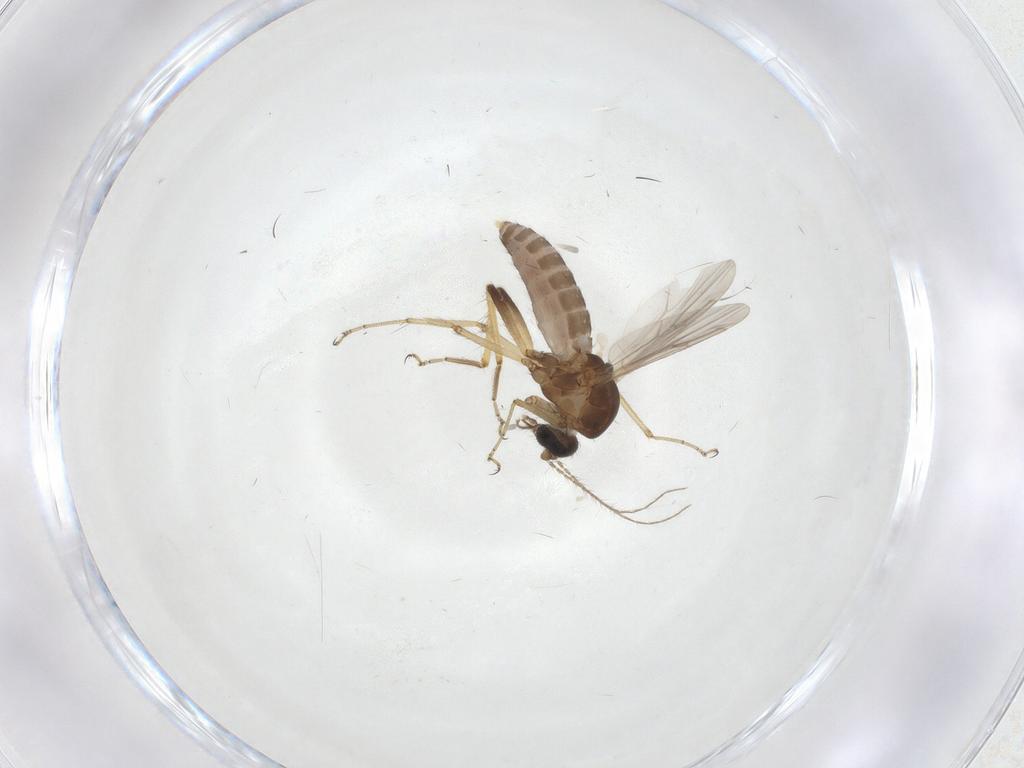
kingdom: Animalia
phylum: Arthropoda
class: Insecta
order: Diptera
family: Ceratopogonidae
